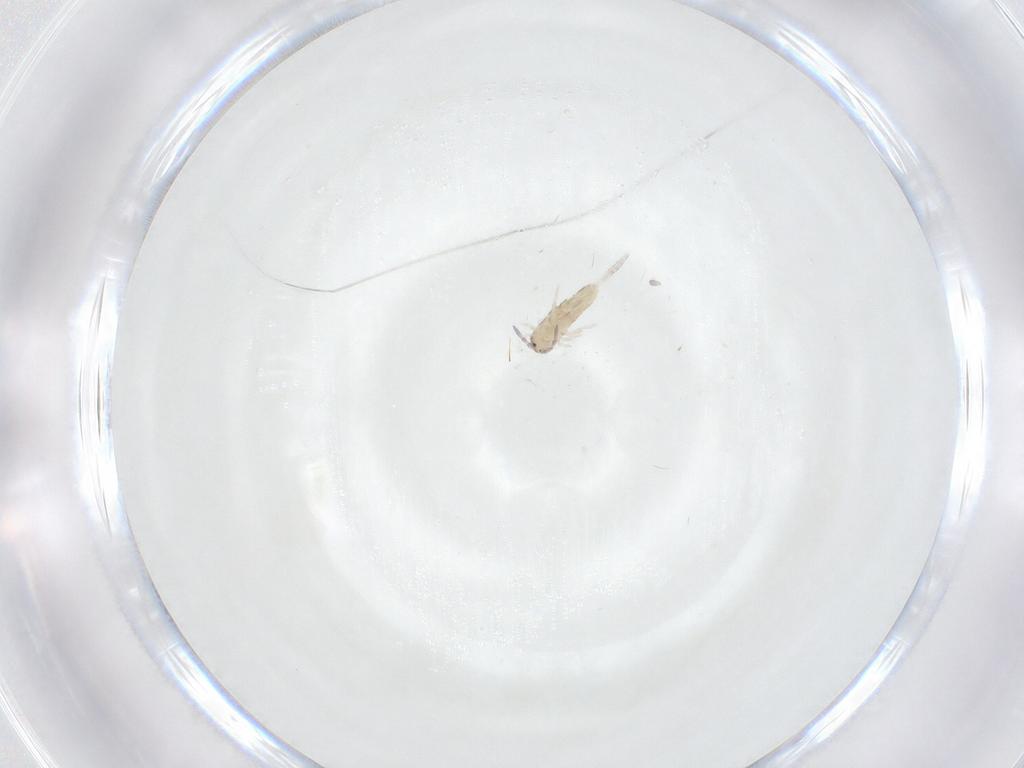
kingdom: Animalia
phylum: Arthropoda
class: Collembola
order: Entomobryomorpha
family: Entomobryidae
